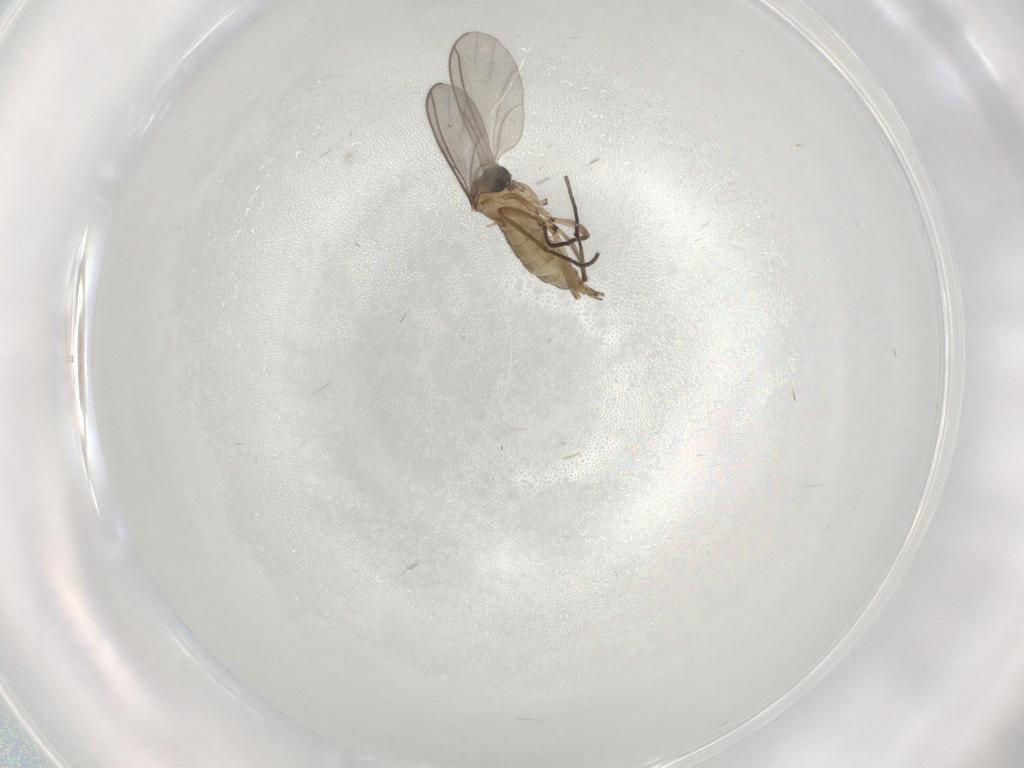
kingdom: Animalia
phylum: Arthropoda
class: Insecta
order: Diptera
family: Sciaridae
